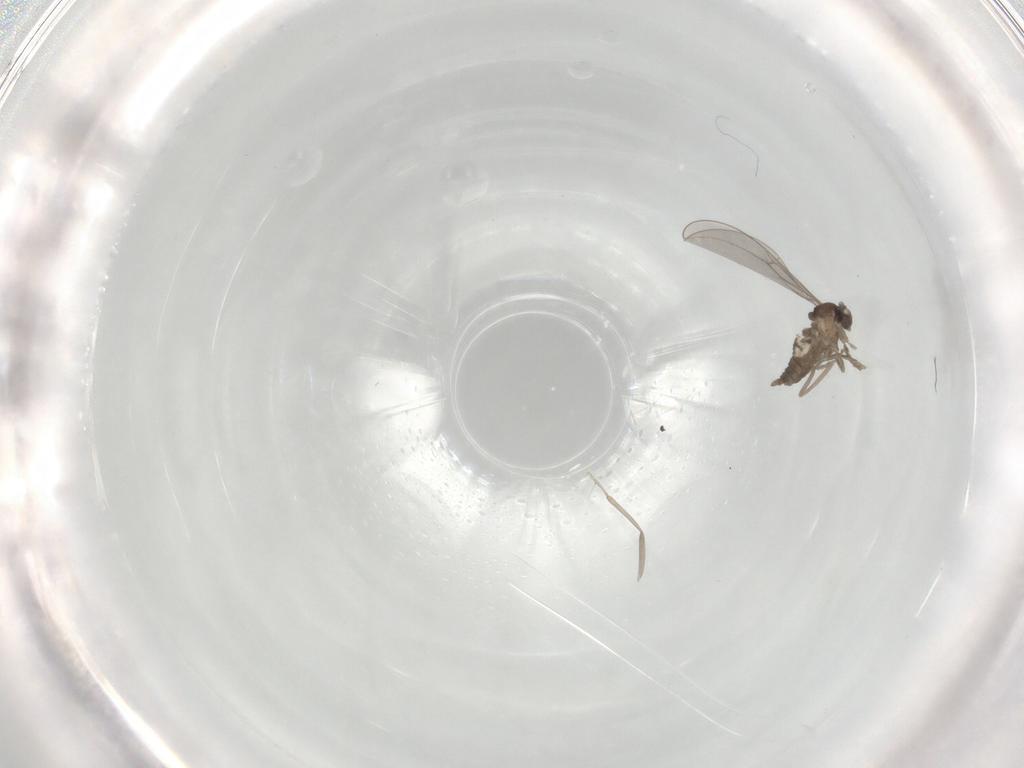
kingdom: Animalia
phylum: Arthropoda
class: Insecta
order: Diptera
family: Cecidomyiidae
